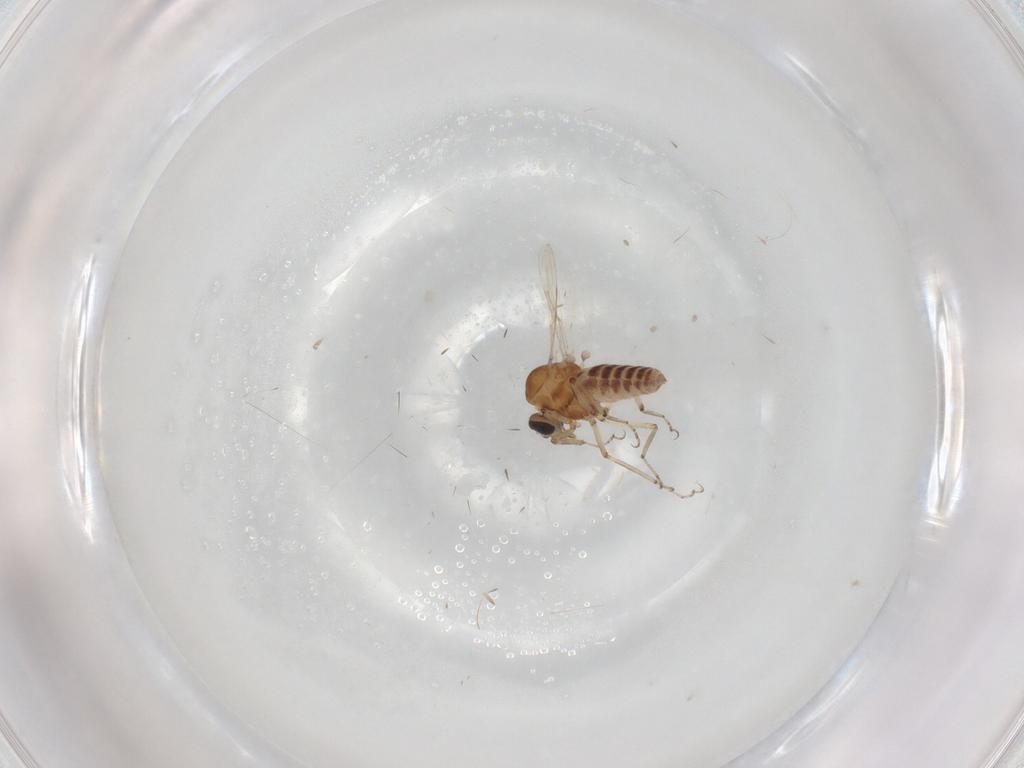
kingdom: Animalia
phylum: Arthropoda
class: Insecta
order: Diptera
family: Ceratopogonidae
